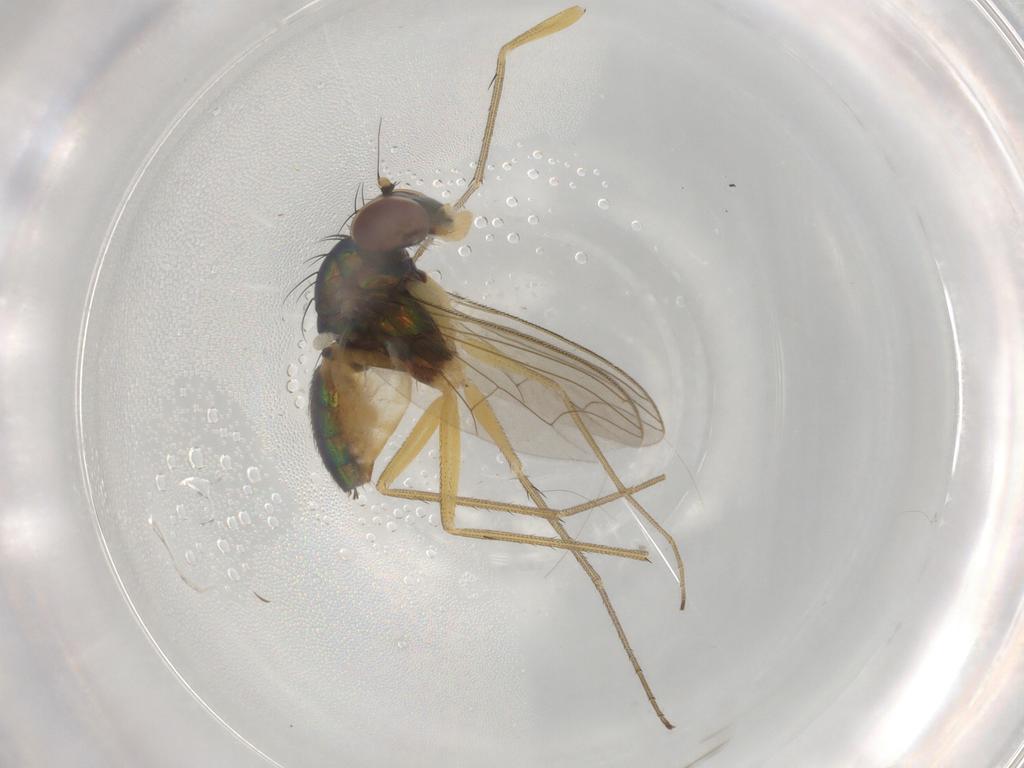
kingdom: Animalia
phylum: Arthropoda
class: Insecta
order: Diptera
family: Dolichopodidae
